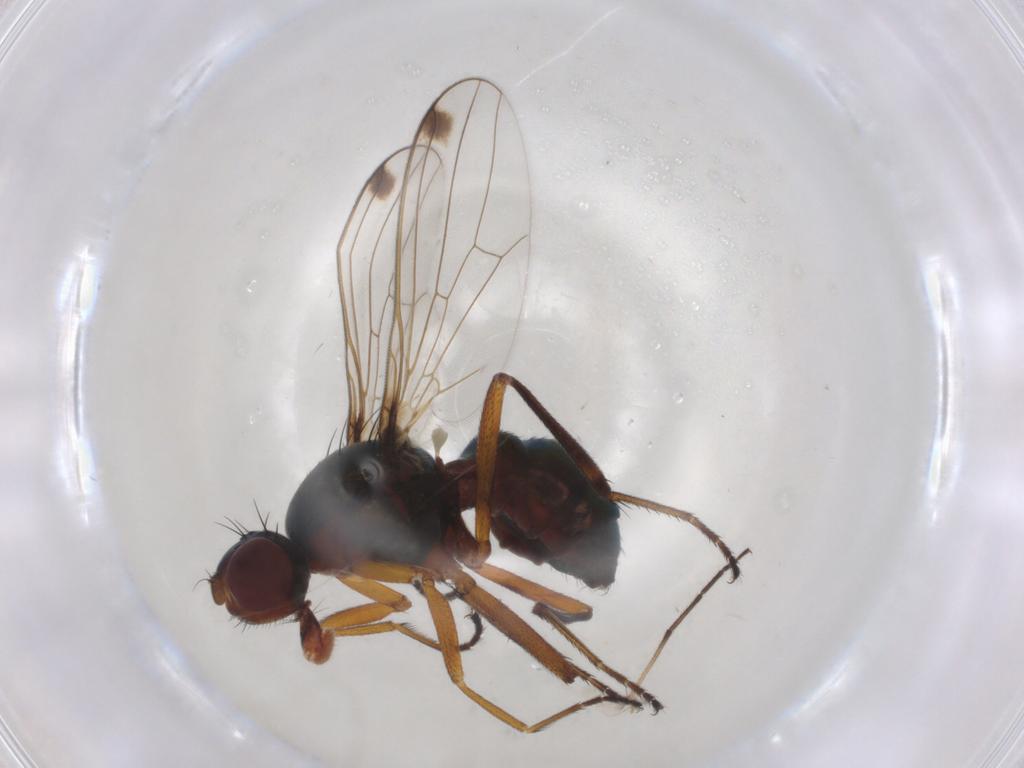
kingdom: Animalia
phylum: Arthropoda
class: Insecta
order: Diptera
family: Sepsidae
